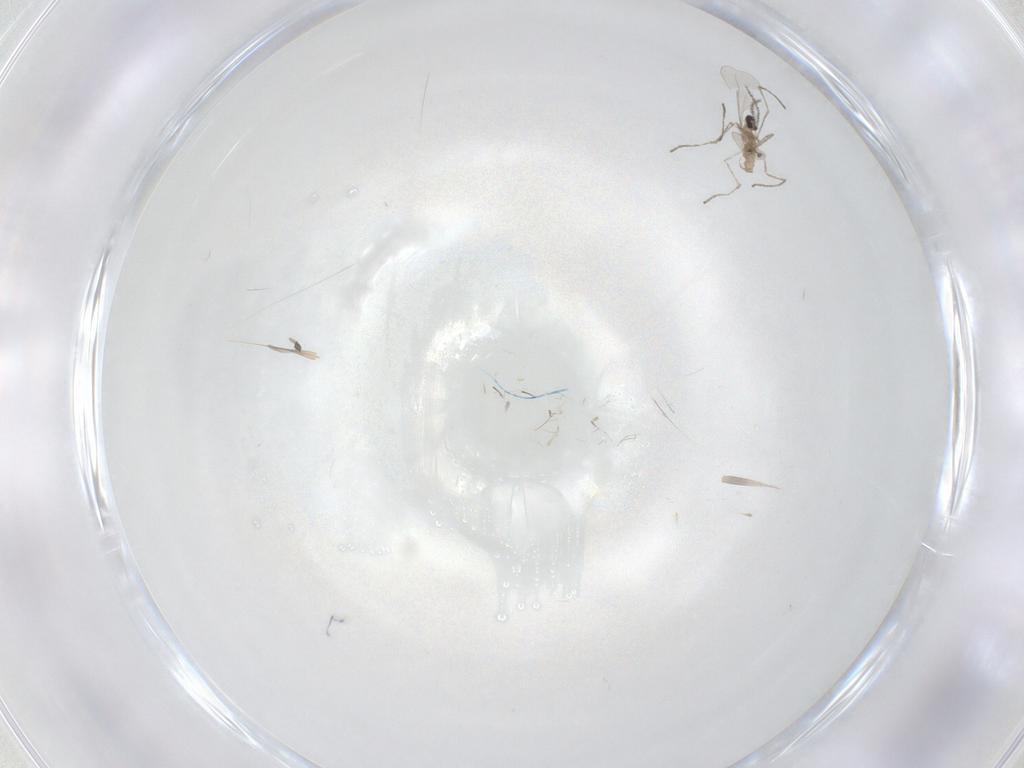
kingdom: Animalia
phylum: Arthropoda
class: Insecta
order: Diptera
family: Cecidomyiidae
